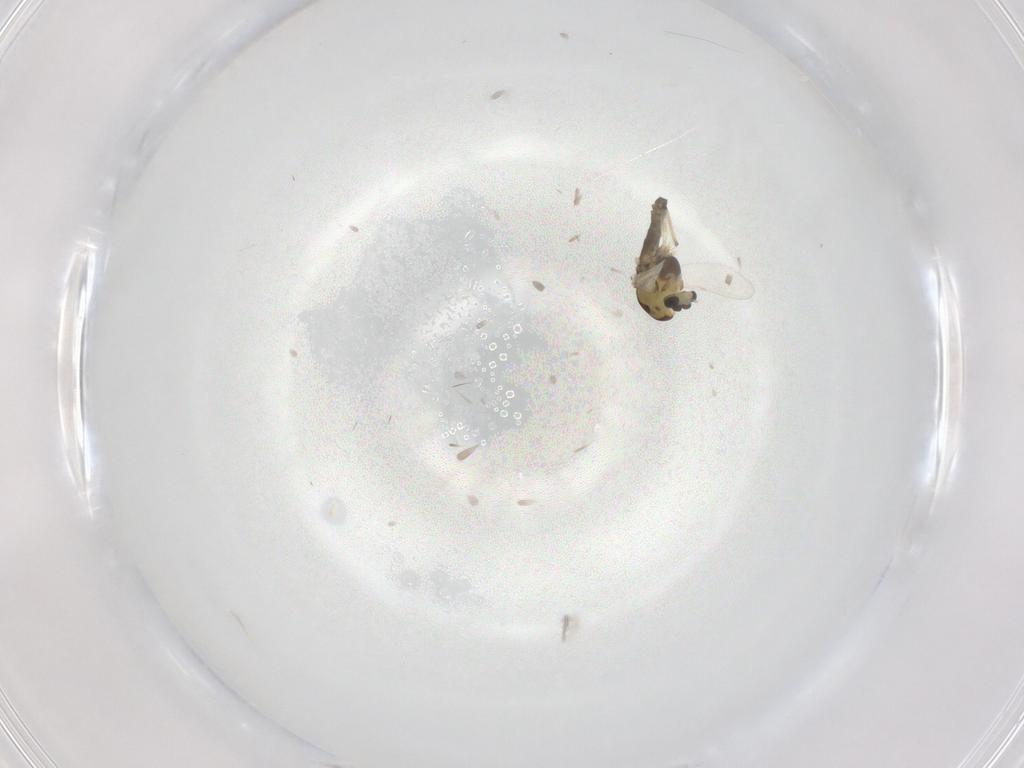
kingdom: Animalia
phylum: Arthropoda
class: Insecta
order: Diptera
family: Chironomidae
